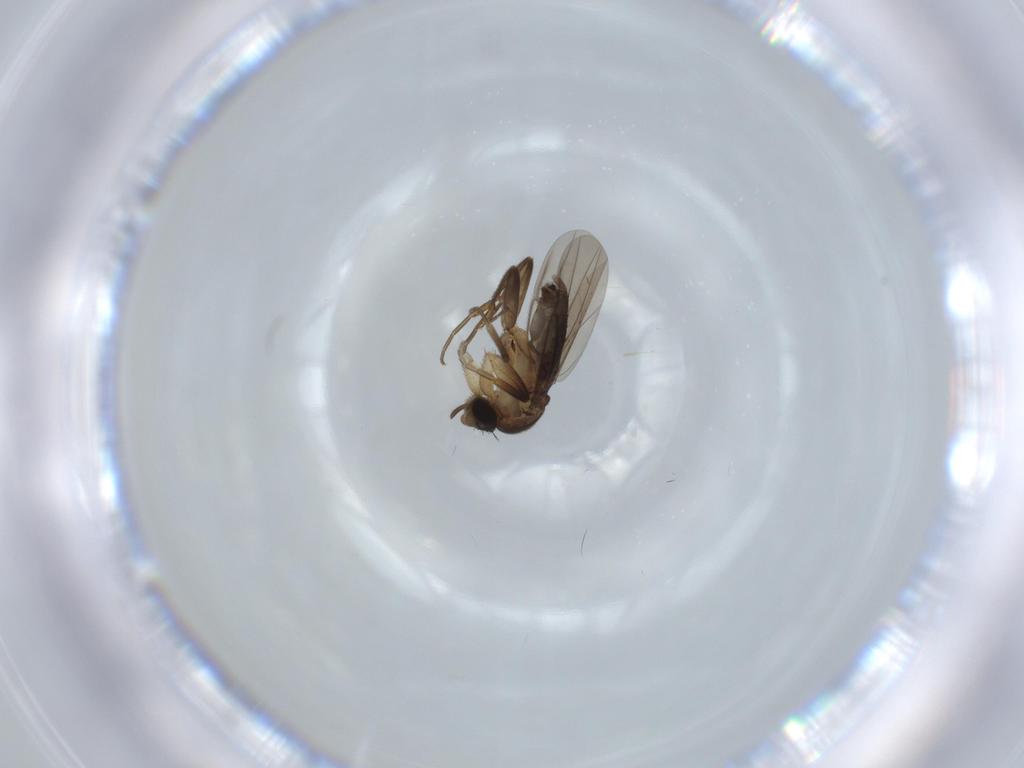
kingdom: Animalia
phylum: Arthropoda
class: Insecta
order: Diptera
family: Phoridae
